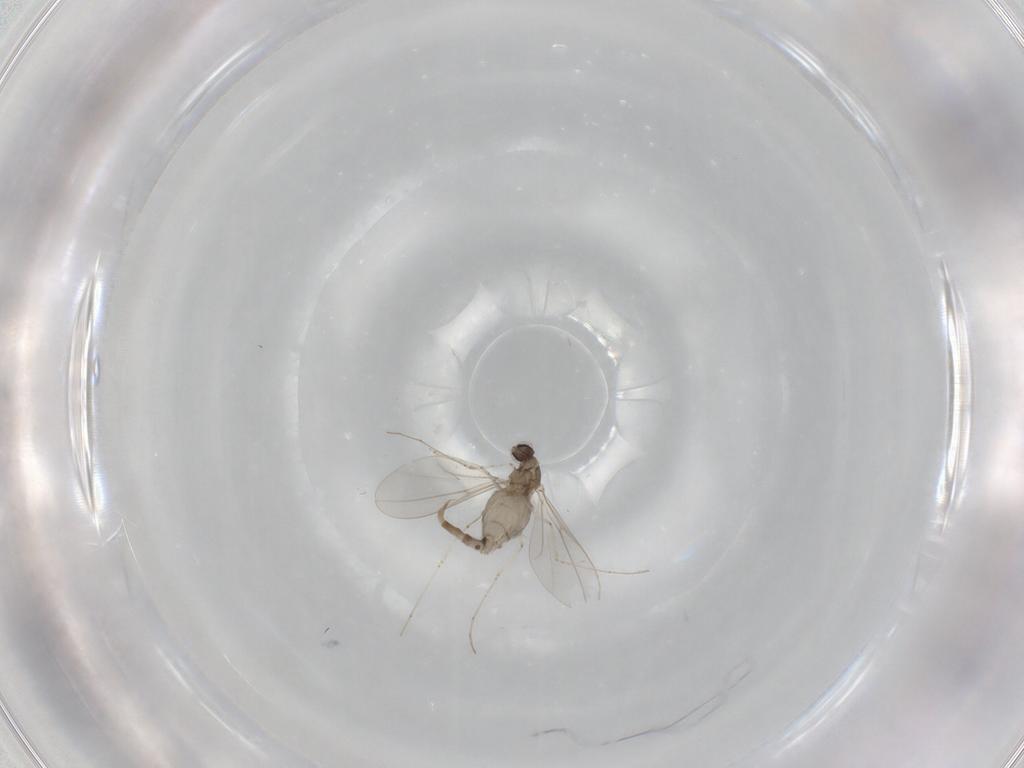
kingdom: Animalia
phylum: Arthropoda
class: Insecta
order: Diptera
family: Cecidomyiidae
